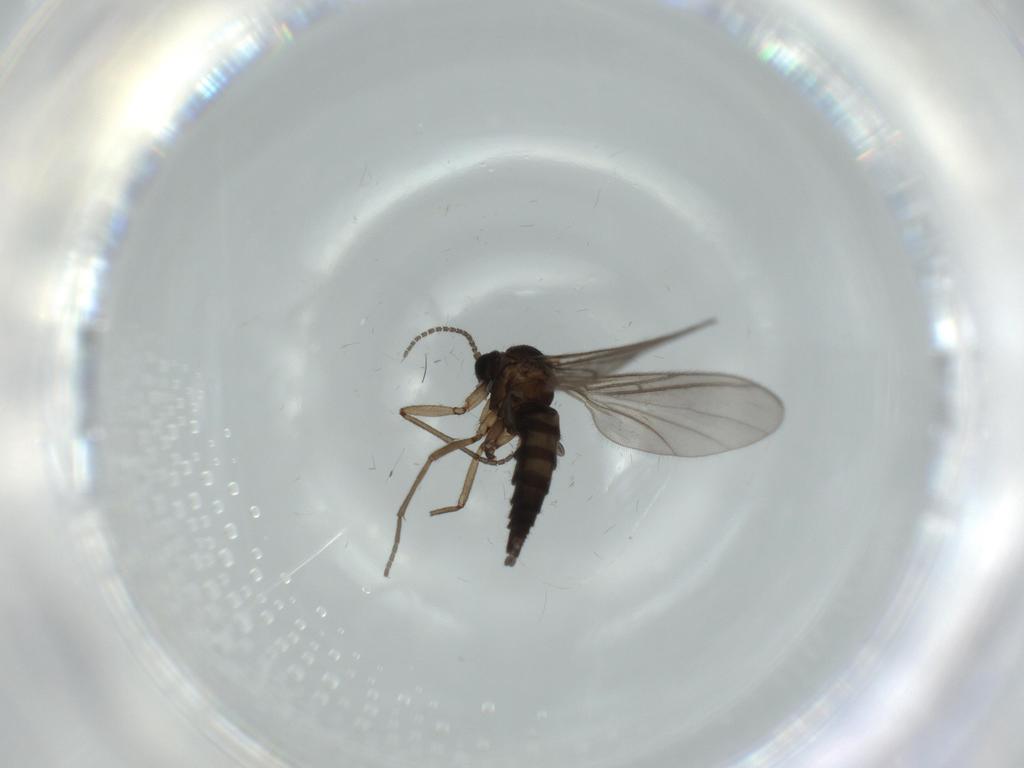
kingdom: Animalia
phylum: Arthropoda
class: Insecta
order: Diptera
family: Sciaridae
